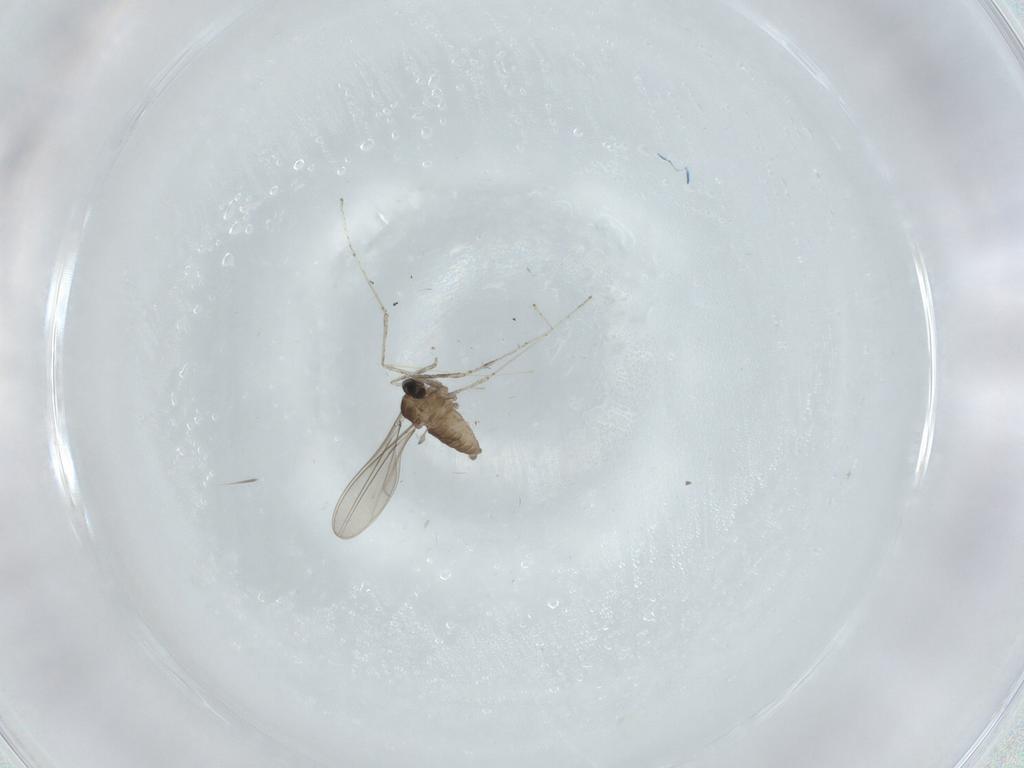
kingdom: Animalia
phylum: Arthropoda
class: Insecta
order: Diptera
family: Cecidomyiidae
